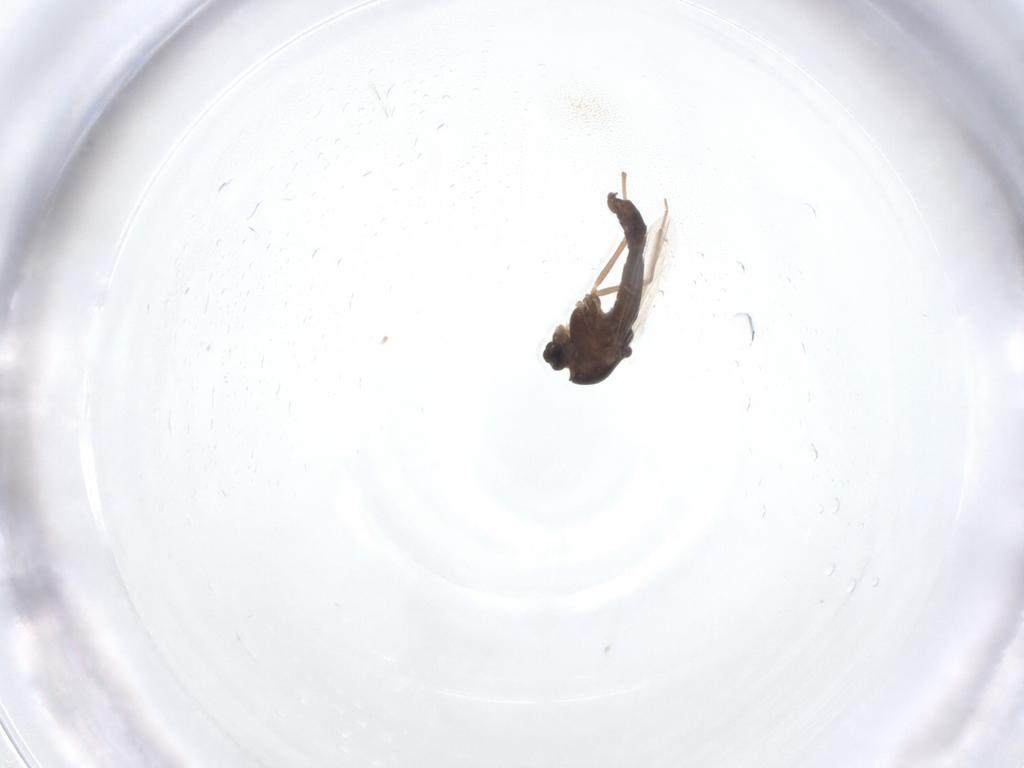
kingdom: Animalia
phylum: Arthropoda
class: Insecta
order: Diptera
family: Chironomidae
